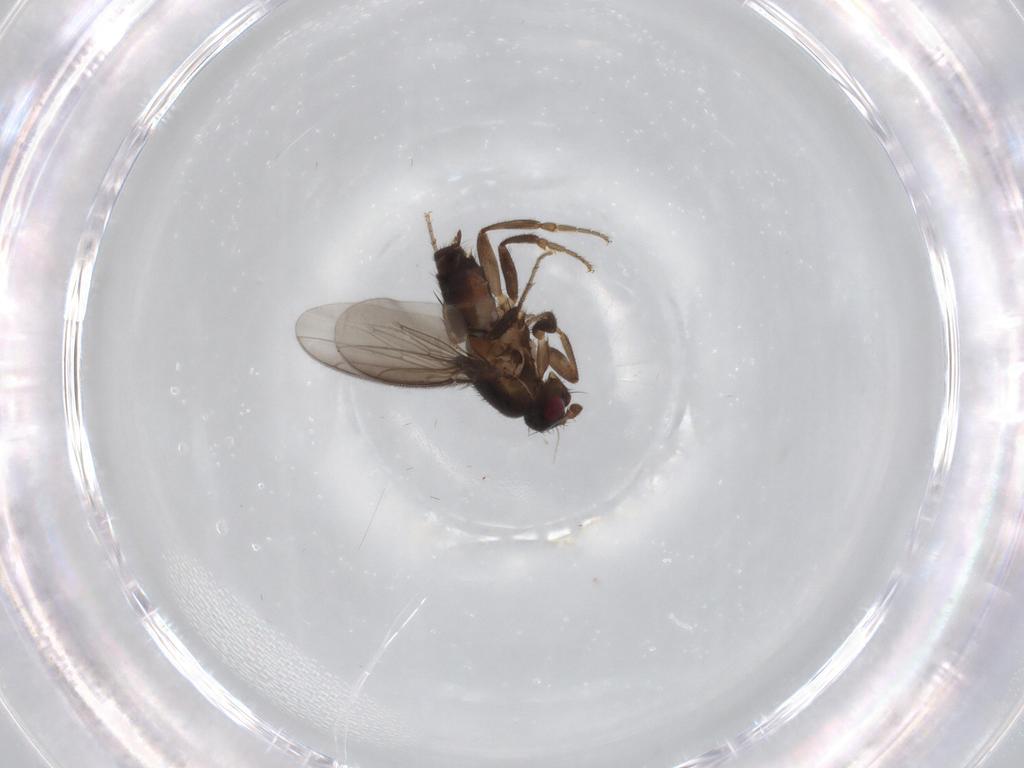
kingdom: Animalia
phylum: Arthropoda
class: Insecta
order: Diptera
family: Sphaeroceridae
